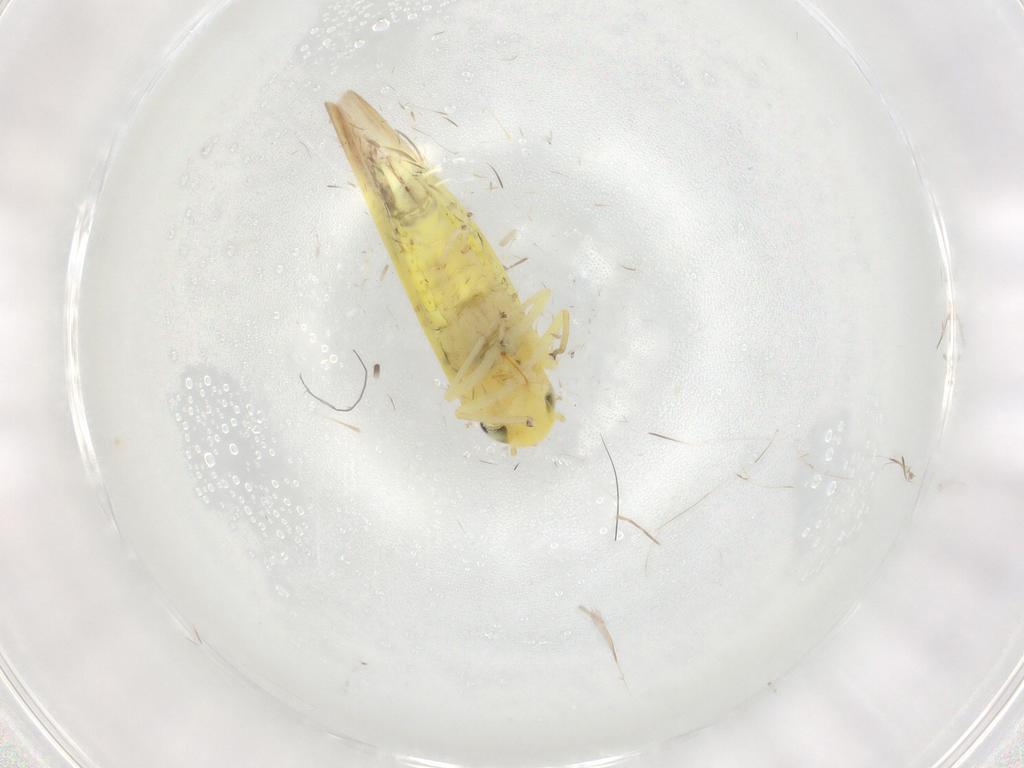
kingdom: Animalia
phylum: Arthropoda
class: Insecta
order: Hemiptera
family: Cicadellidae
